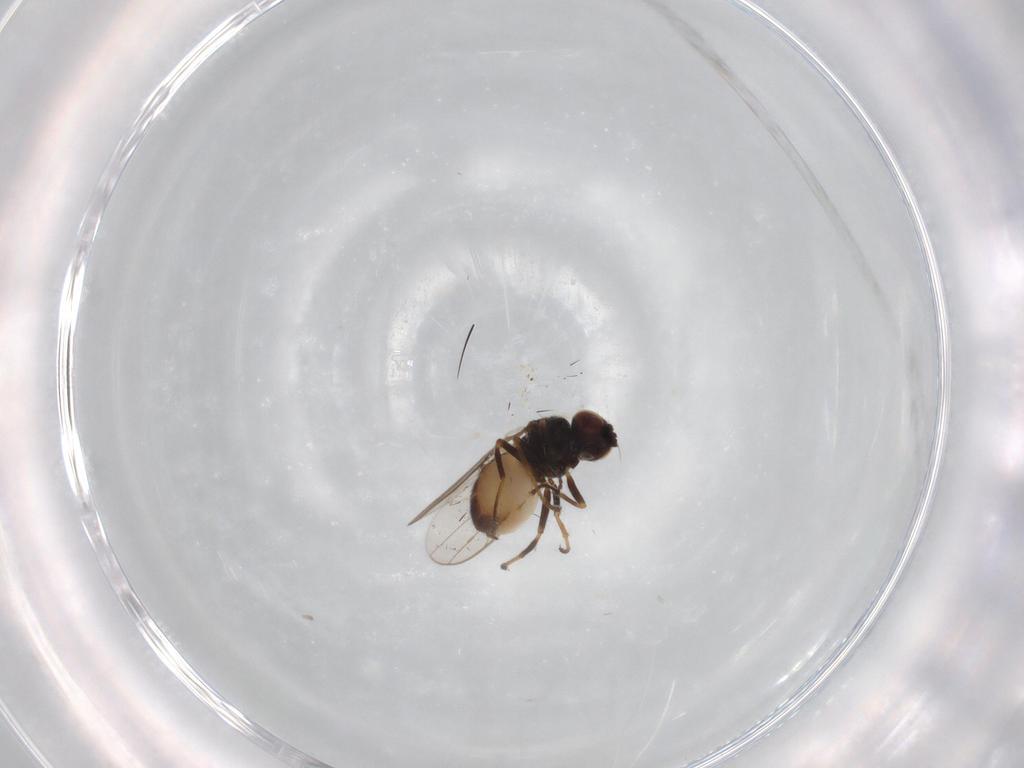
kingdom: Animalia
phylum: Arthropoda
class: Insecta
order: Diptera
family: Chloropidae
